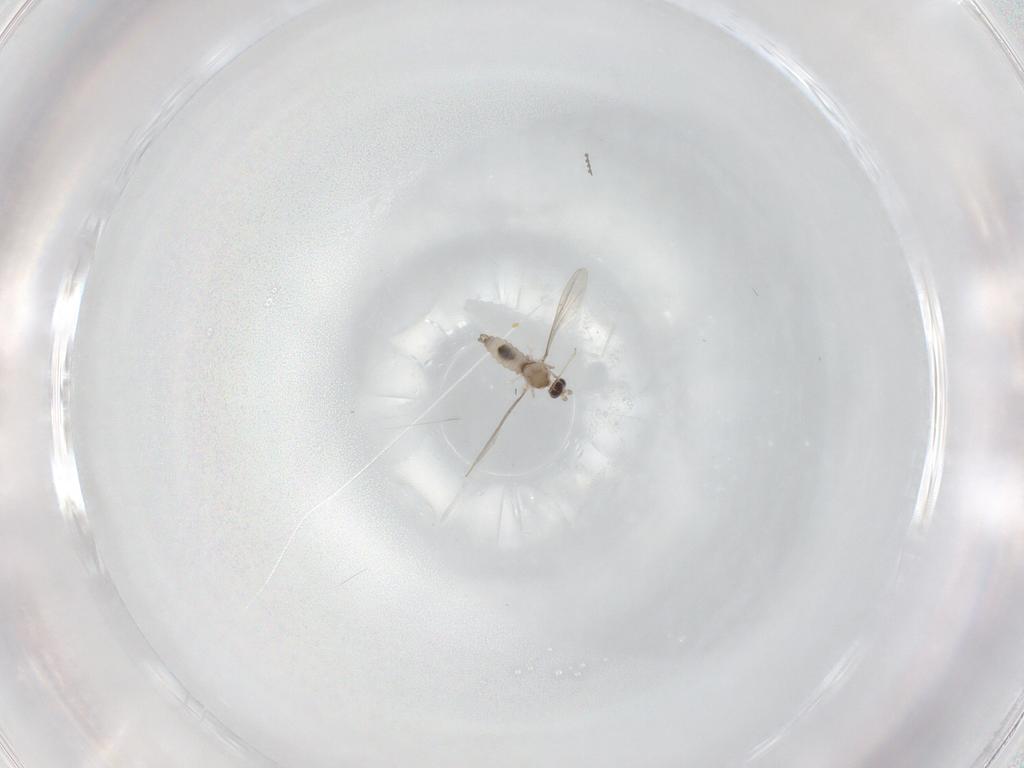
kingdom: Animalia
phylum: Arthropoda
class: Insecta
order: Diptera
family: Cecidomyiidae
